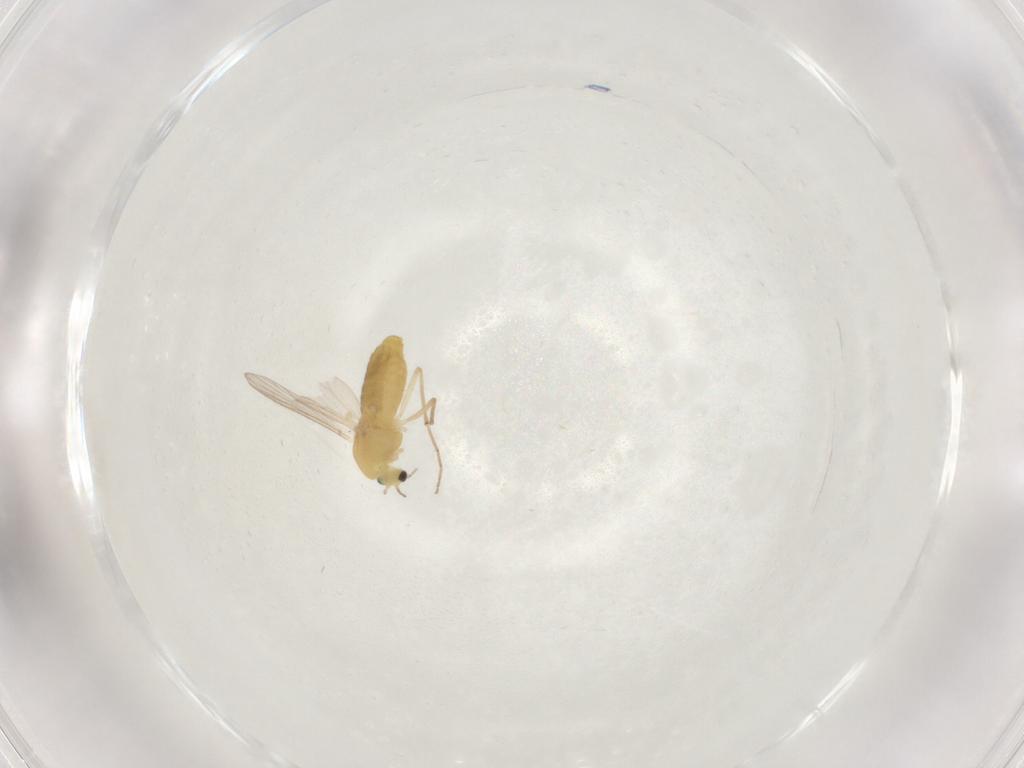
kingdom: Animalia
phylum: Arthropoda
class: Insecta
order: Diptera
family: Chironomidae
